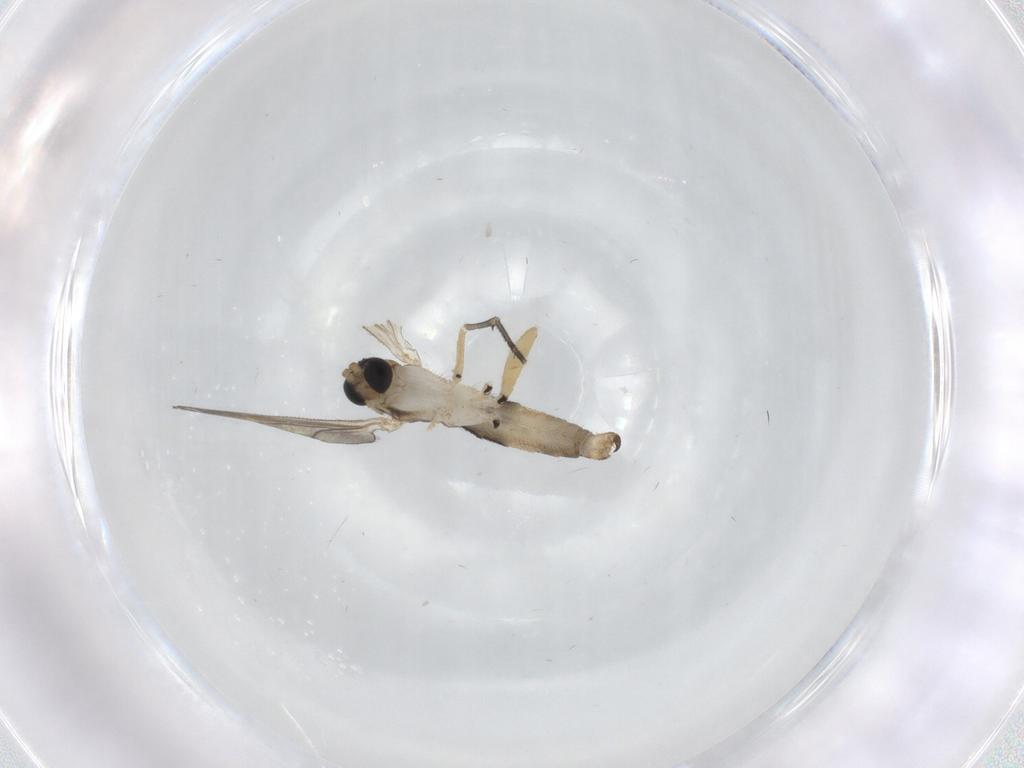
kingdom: Animalia
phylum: Arthropoda
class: Insecta
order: Diptera
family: Sciaridae
